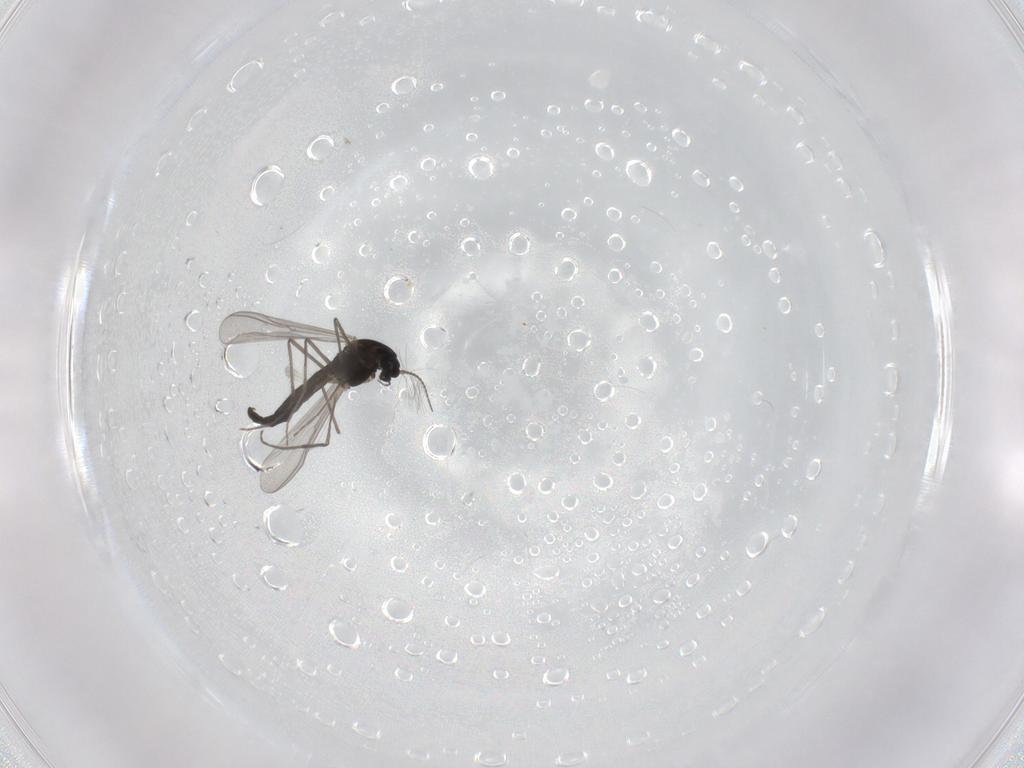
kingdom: Animalia
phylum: Arthropoda
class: Insecta
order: Diptera
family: Chironomidae
